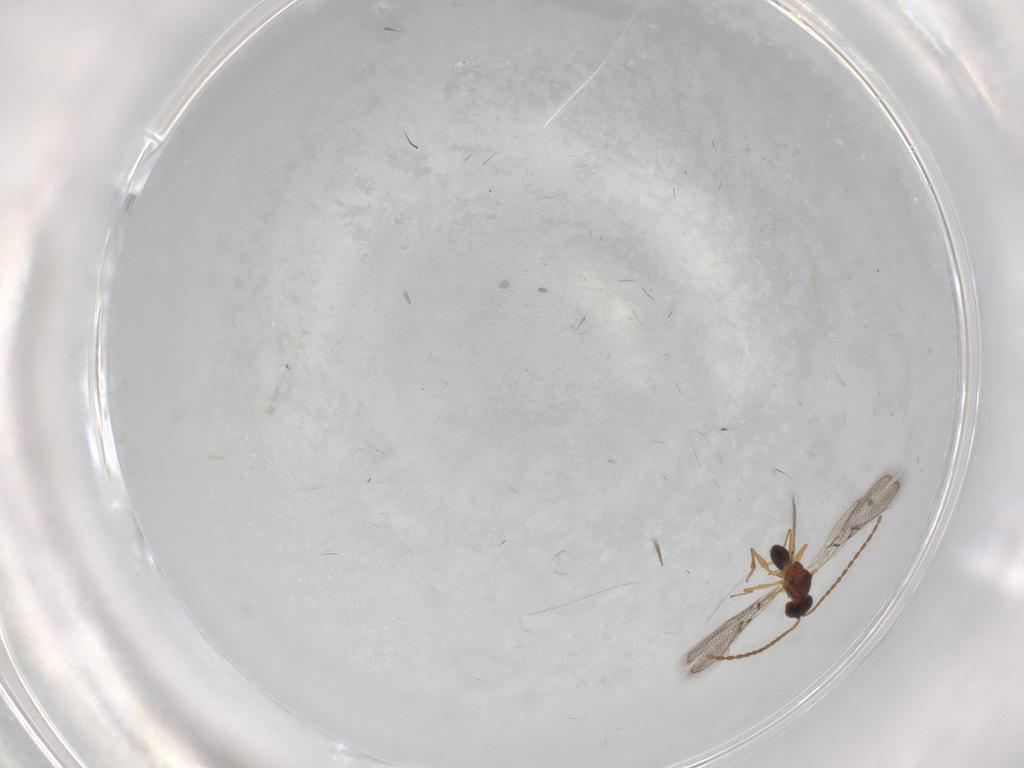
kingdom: Animalia
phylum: Arthropoda
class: Insecta
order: Hymenoptera
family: Figitidae
